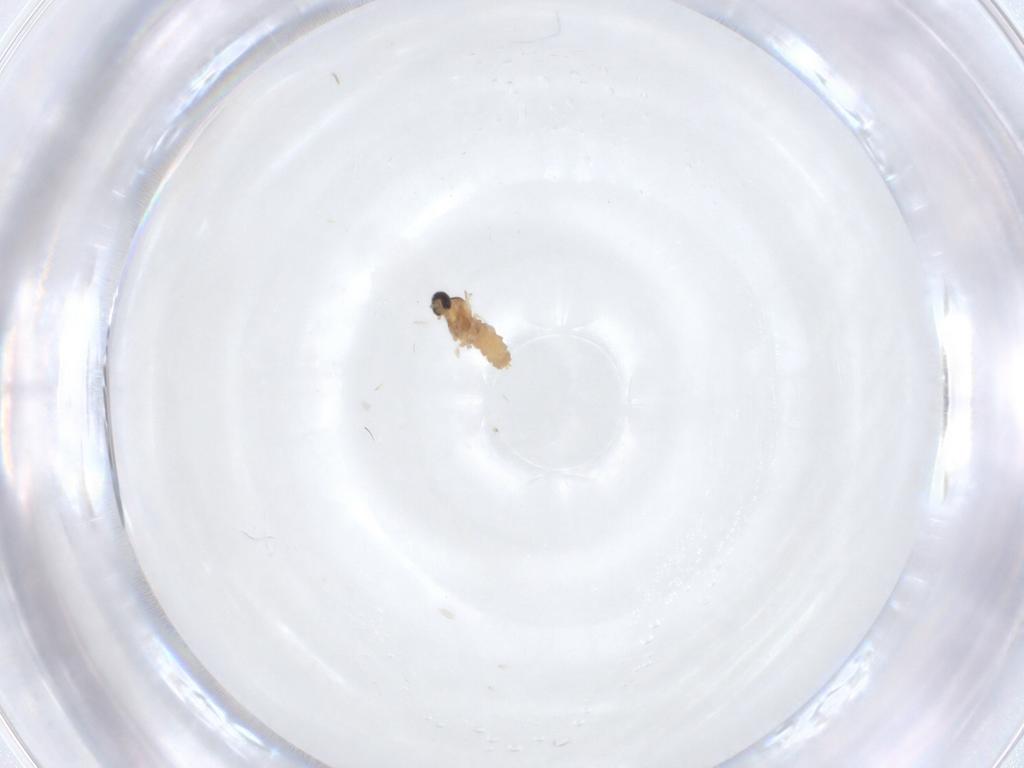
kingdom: Animalia
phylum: Arthropoda
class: Insecta
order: Diptera
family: Cecidomyiidae
